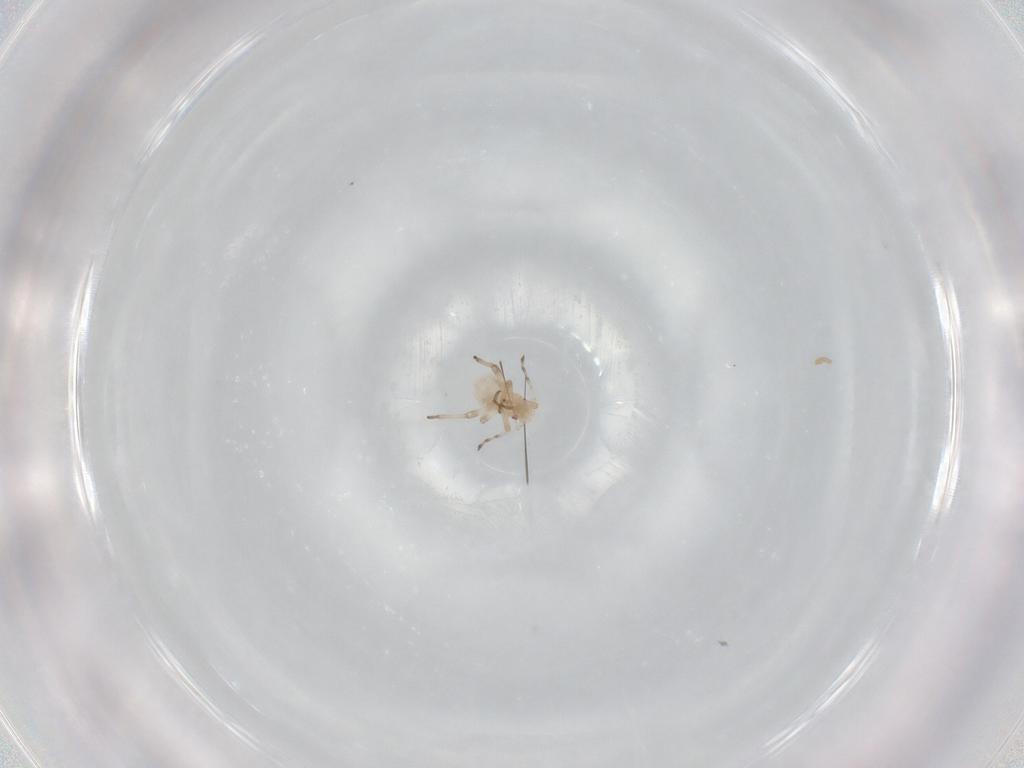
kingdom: Animalia
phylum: Arthropoda
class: Insecta
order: Hemiptera
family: Aphididae
